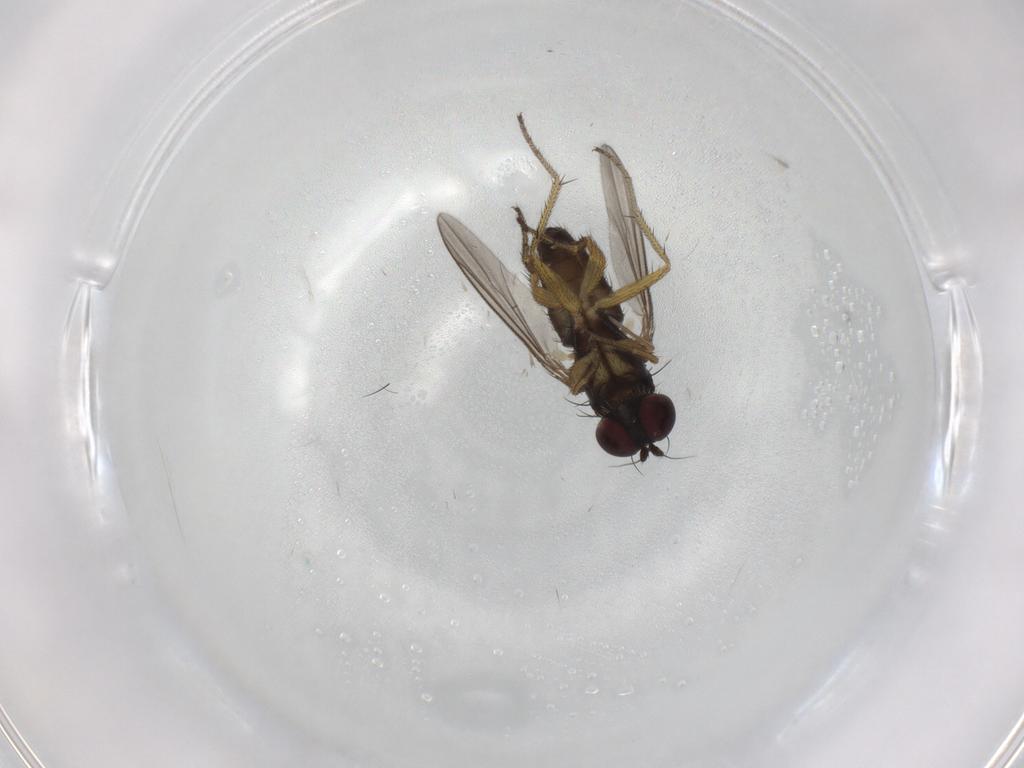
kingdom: Animalia
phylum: Arthropoda
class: Insecta
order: Diptera
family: Dolichopodidae
